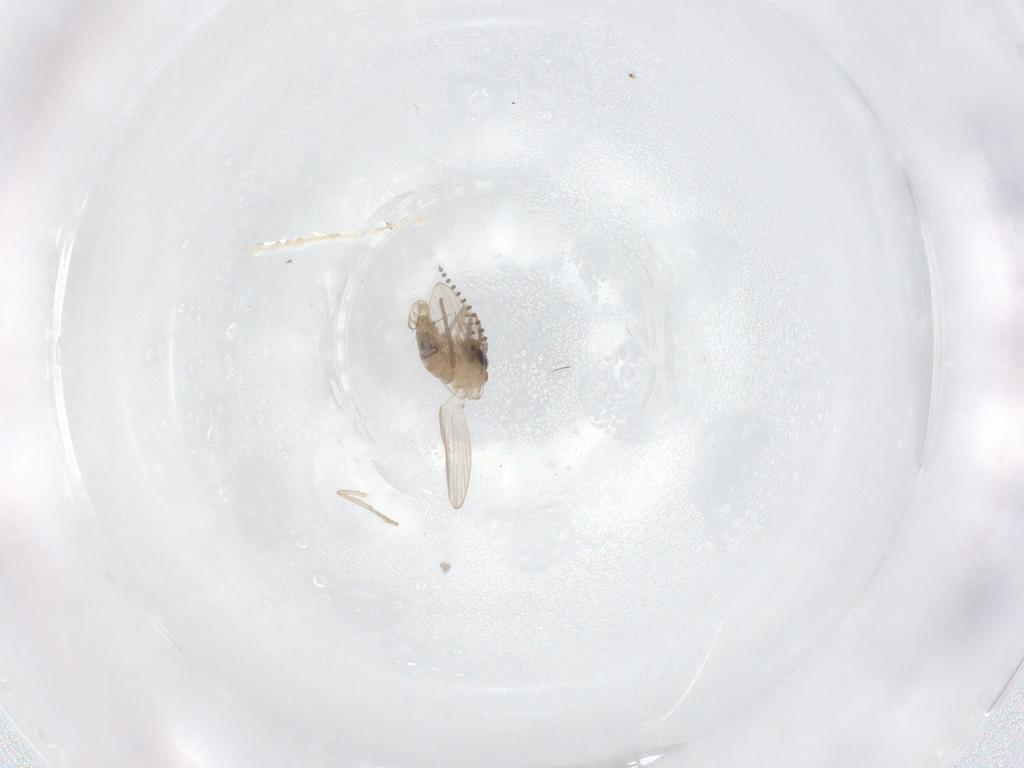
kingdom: Animalia
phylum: Arthropoda
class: Insecta
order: Diptera
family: Psychodidae
